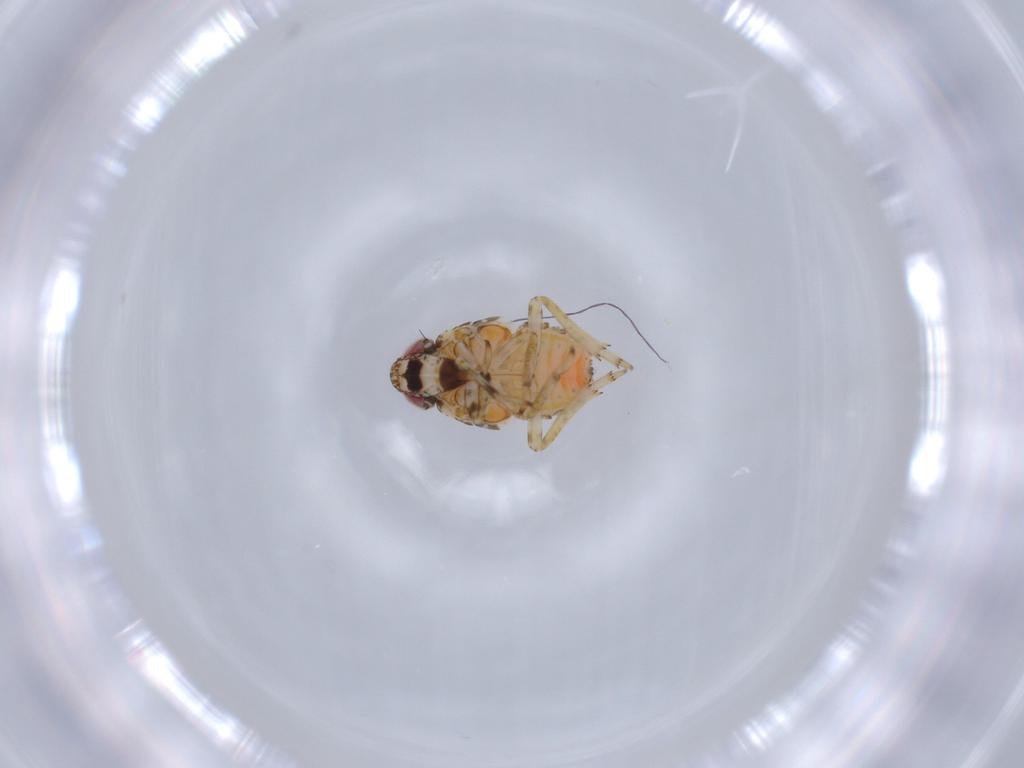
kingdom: Animalia
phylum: Arthropoda
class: Insecta
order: Hemiptera
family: Issidae
